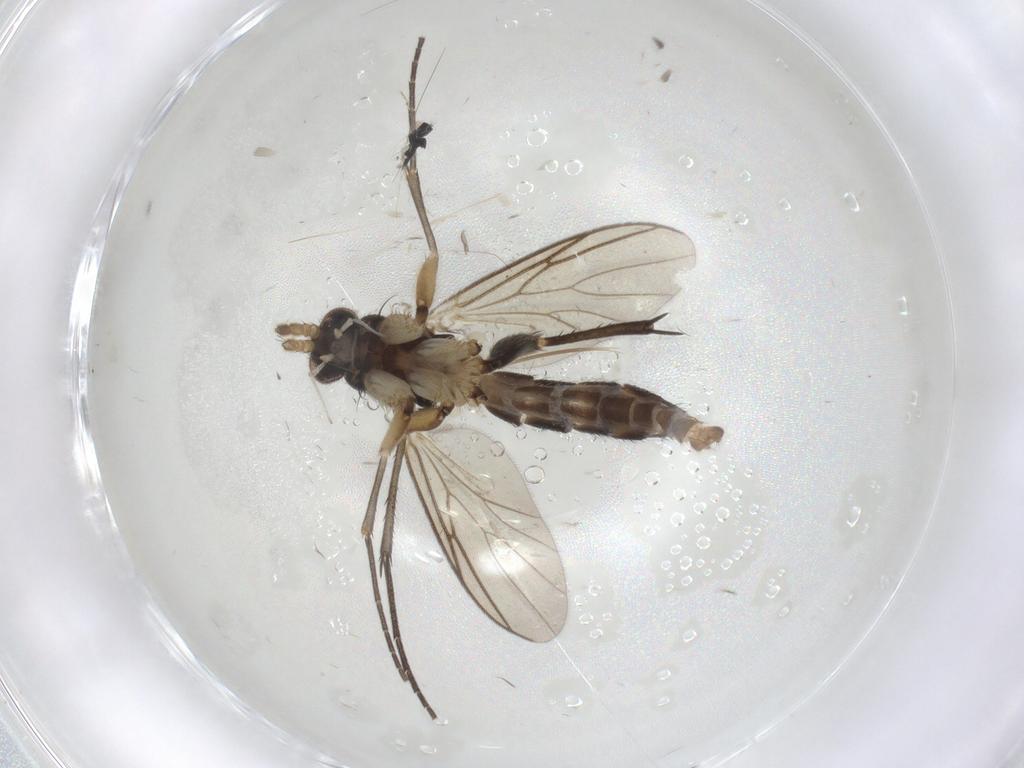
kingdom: Animalia
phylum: Arthropoda
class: Insecta
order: Diptera
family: Mycetophilidae
